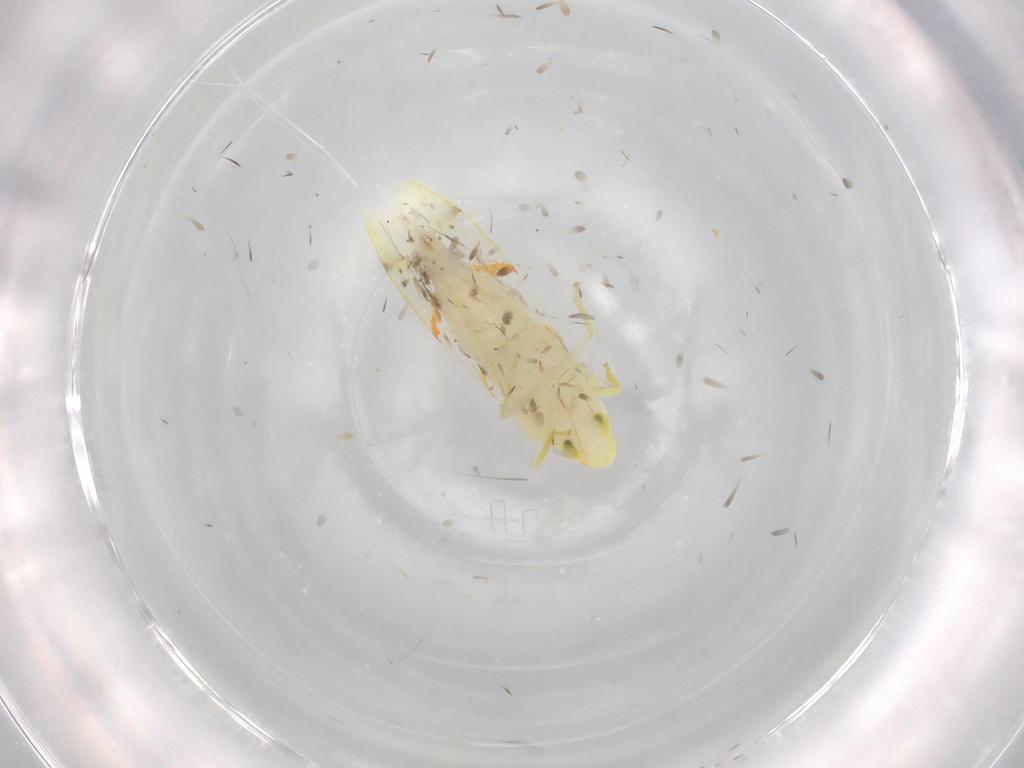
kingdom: Animalia
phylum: Arthropoda
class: Insecta
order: Hemiptera
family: Cicadellidae
